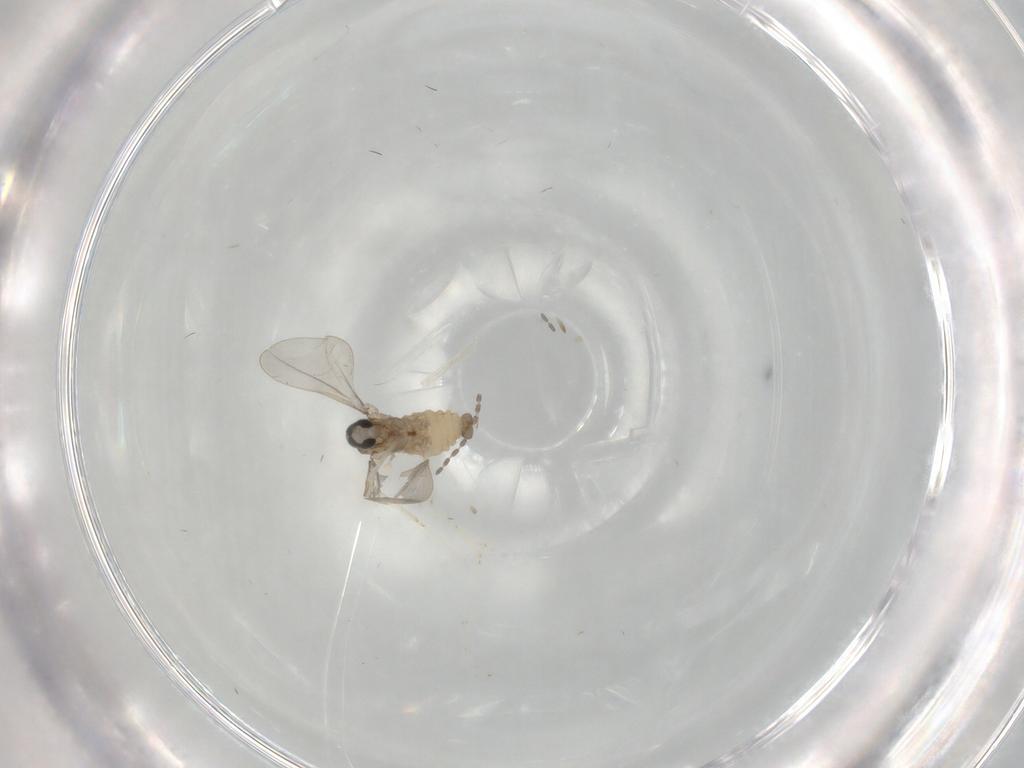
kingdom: Animalia
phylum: Arthropoda
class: Insecta
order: Diptera
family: Cecidomyiidae
